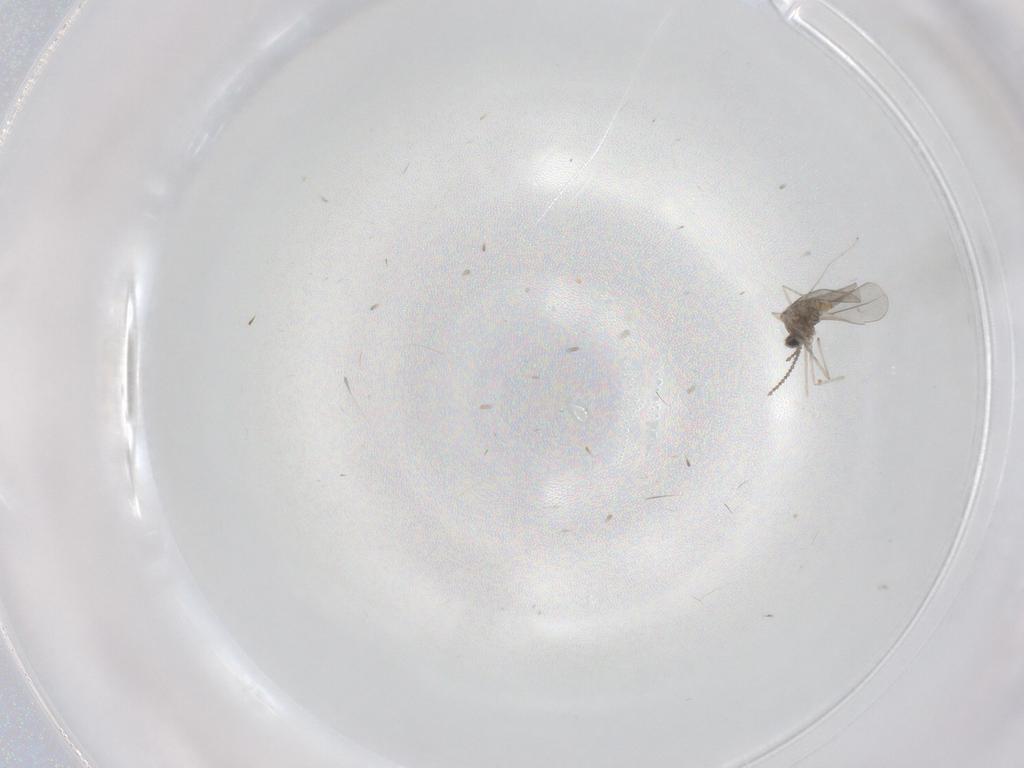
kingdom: Animalia
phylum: Arthropoda
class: Insecta
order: Diptera
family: Cecidomyiidae
